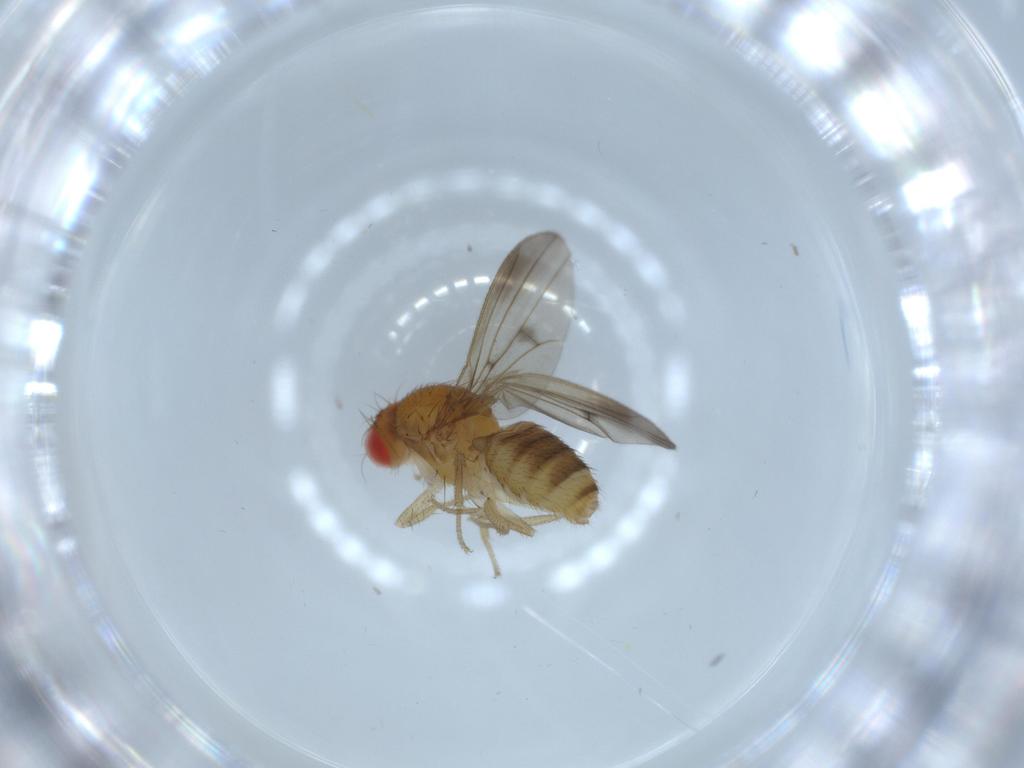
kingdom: Animalia
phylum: Arthropoda
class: Insecta
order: Diptera
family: Drosophilidae
